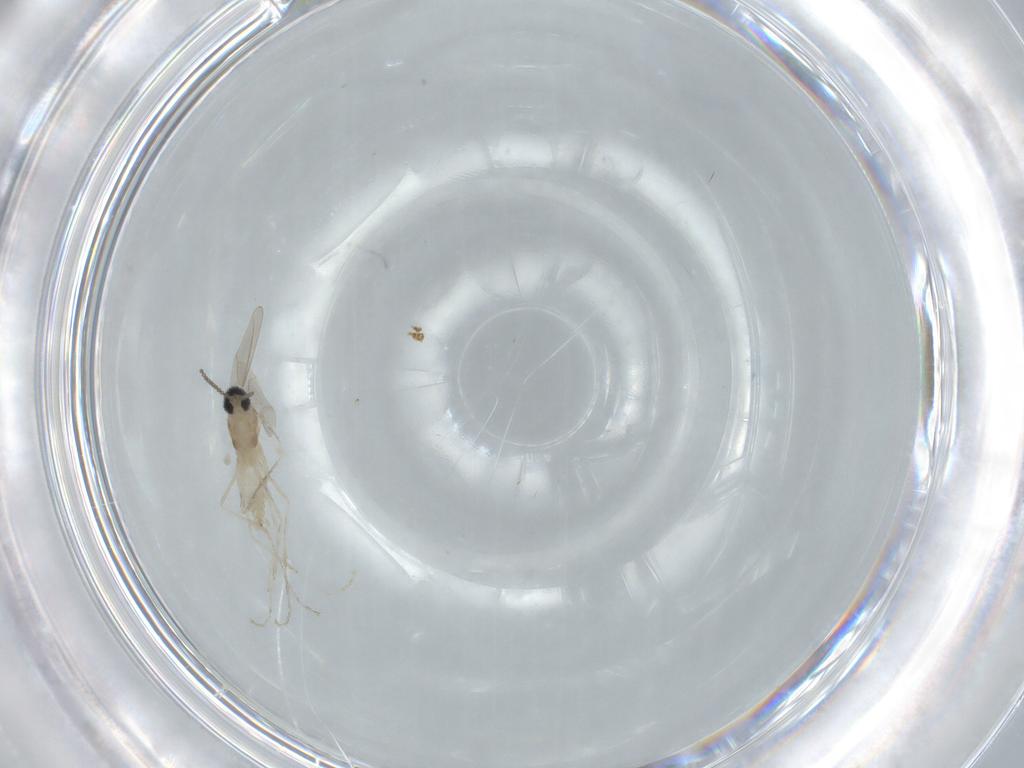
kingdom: Animalia
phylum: Arthropoda
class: Insecta
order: Diptera
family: Cecidomyiidae
